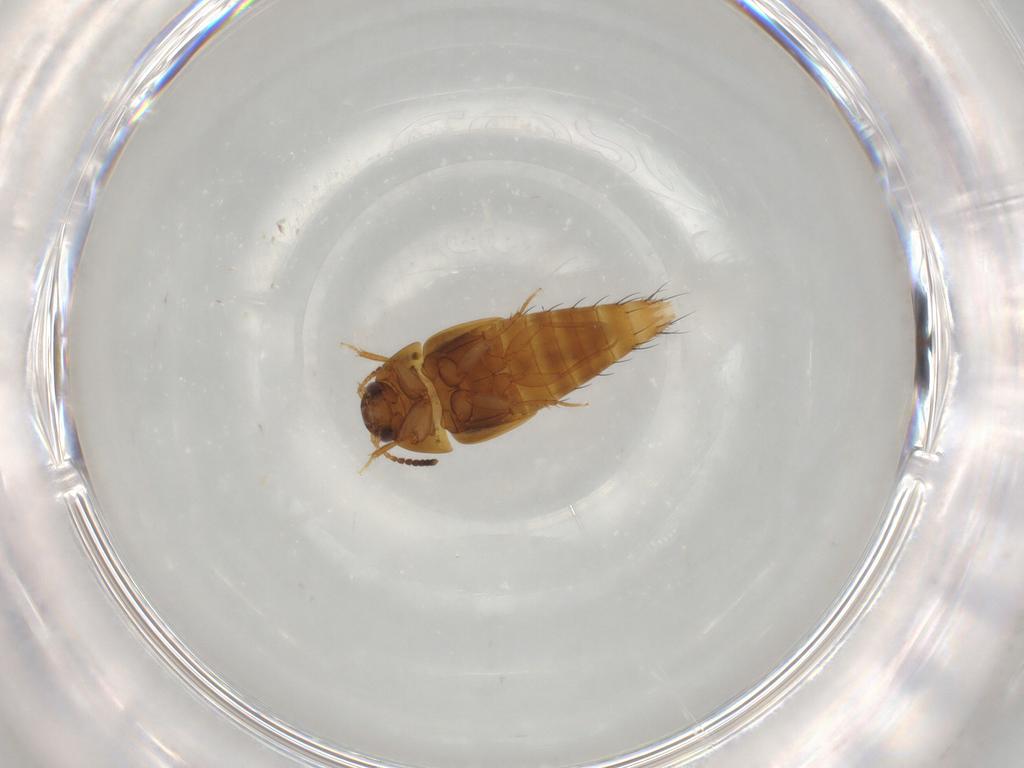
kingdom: Animalia
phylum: Arthropoda
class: Insecta
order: Coleoptera
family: Staphylinidae
